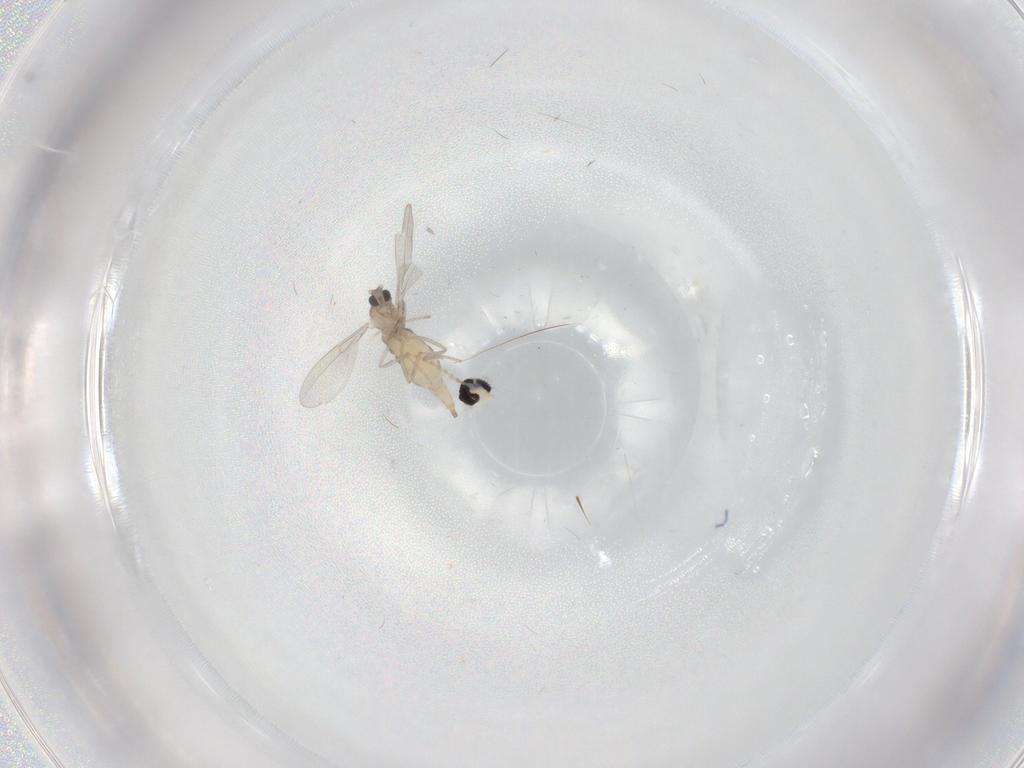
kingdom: Animalia
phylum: Arthropoda
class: Insecta
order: Diptera
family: Cecidomyiidae
